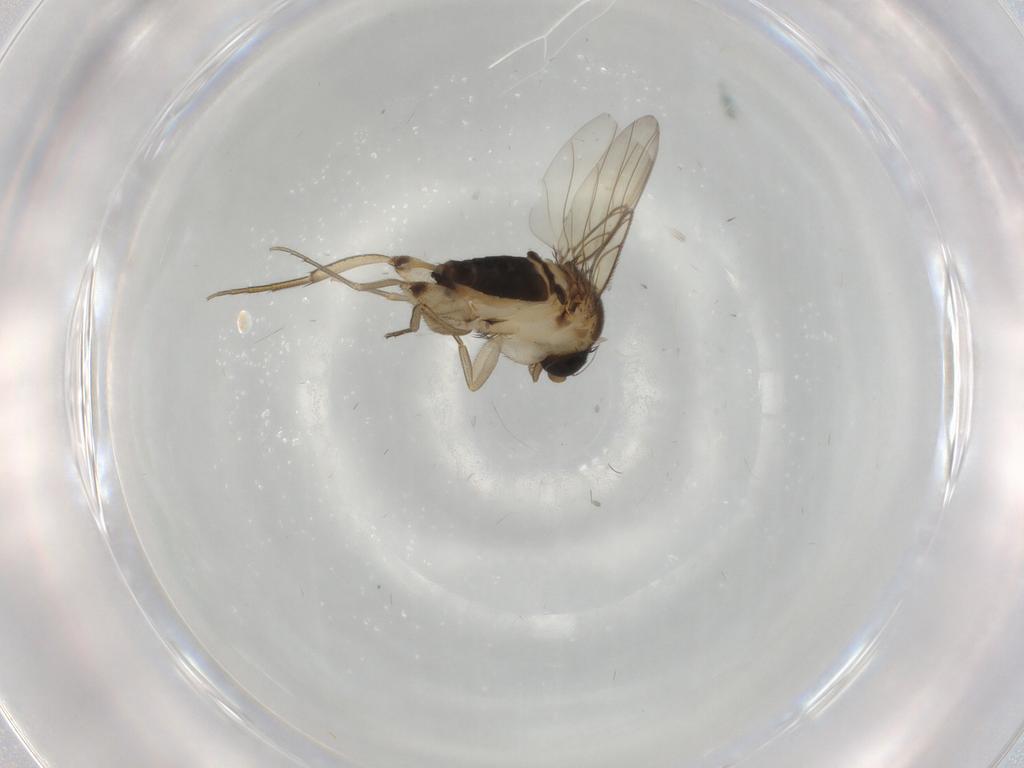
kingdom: Animalia
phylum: Arthropoda
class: Insecta
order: Diptera
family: Phoridae
